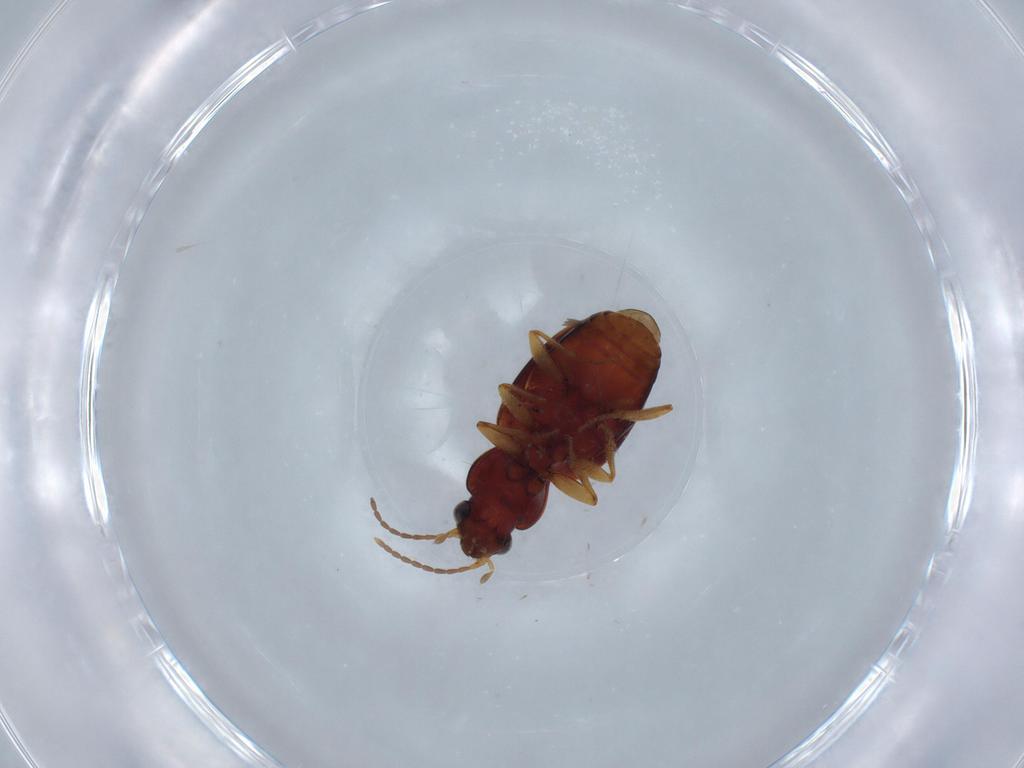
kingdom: Animalia
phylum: Arthropoda
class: Insecta
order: Coleoptera
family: Carabidae
